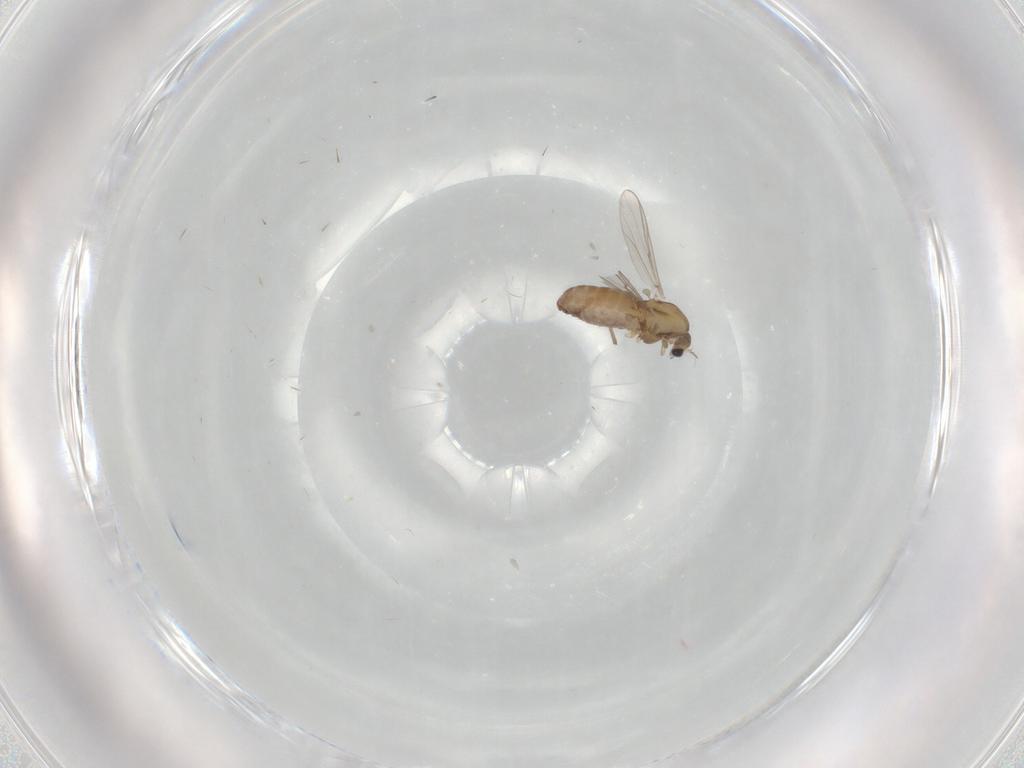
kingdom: Animalia
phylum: Arthropoda
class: Insecta
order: Diptera
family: Chironomidae
